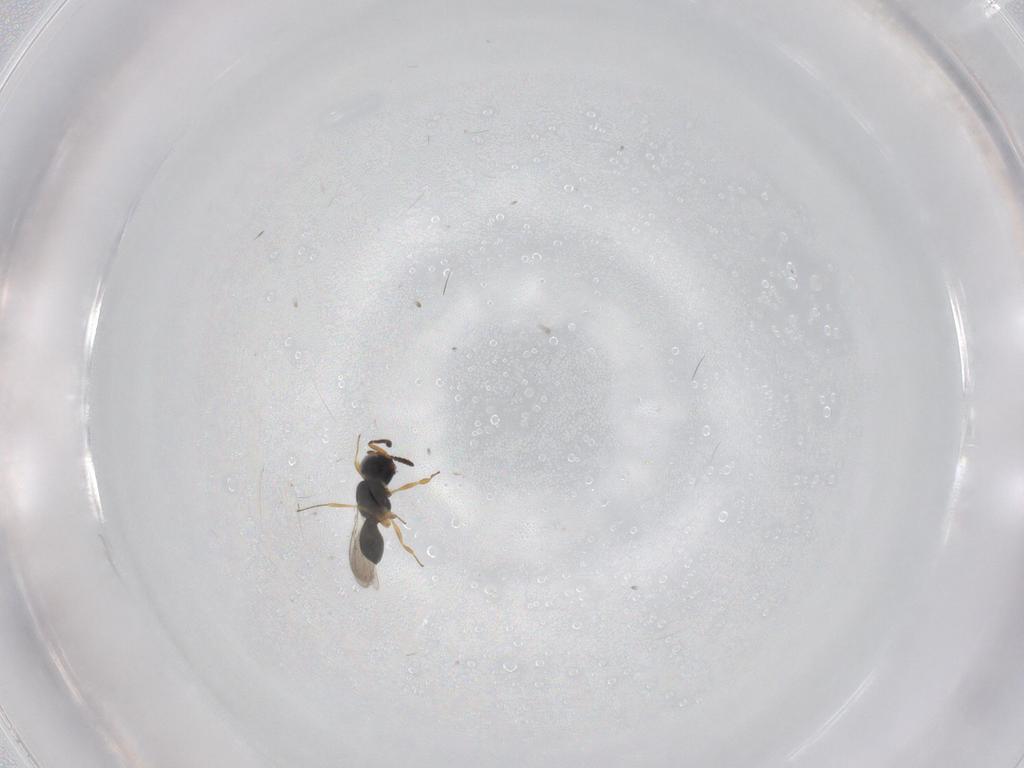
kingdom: Animalia
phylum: Arthropoda
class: Insecta
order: Hymenoptera
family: Scelionidae
